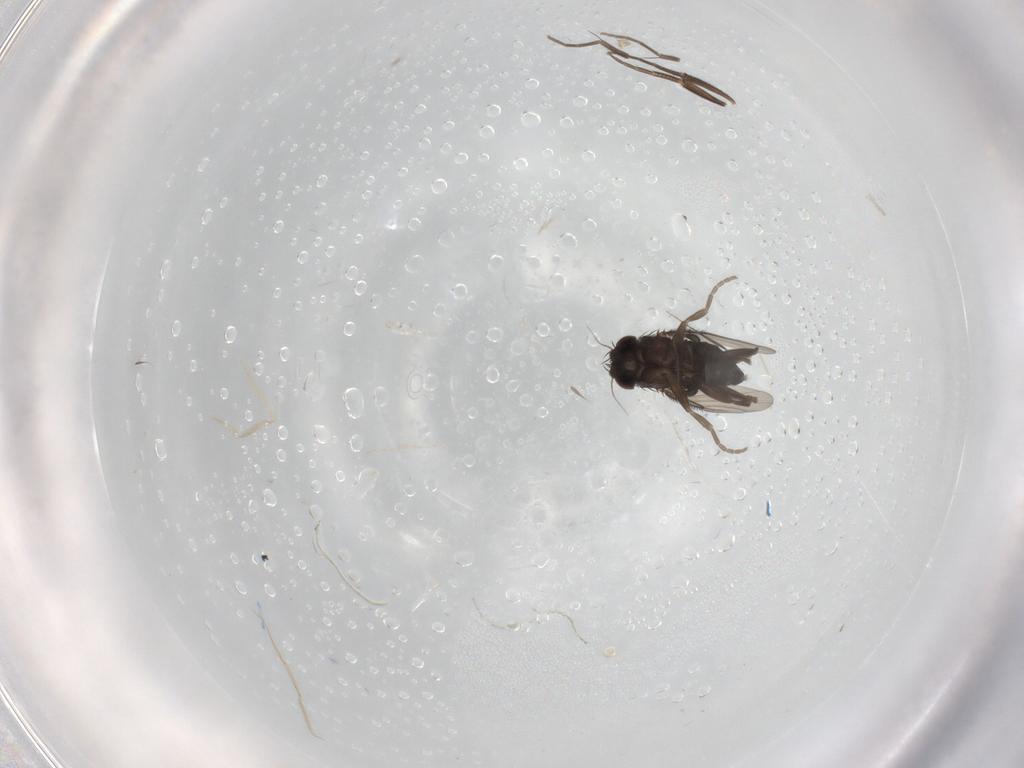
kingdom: Animalia
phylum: Arthropoda
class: Insecta
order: Diptera
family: Phoridae
